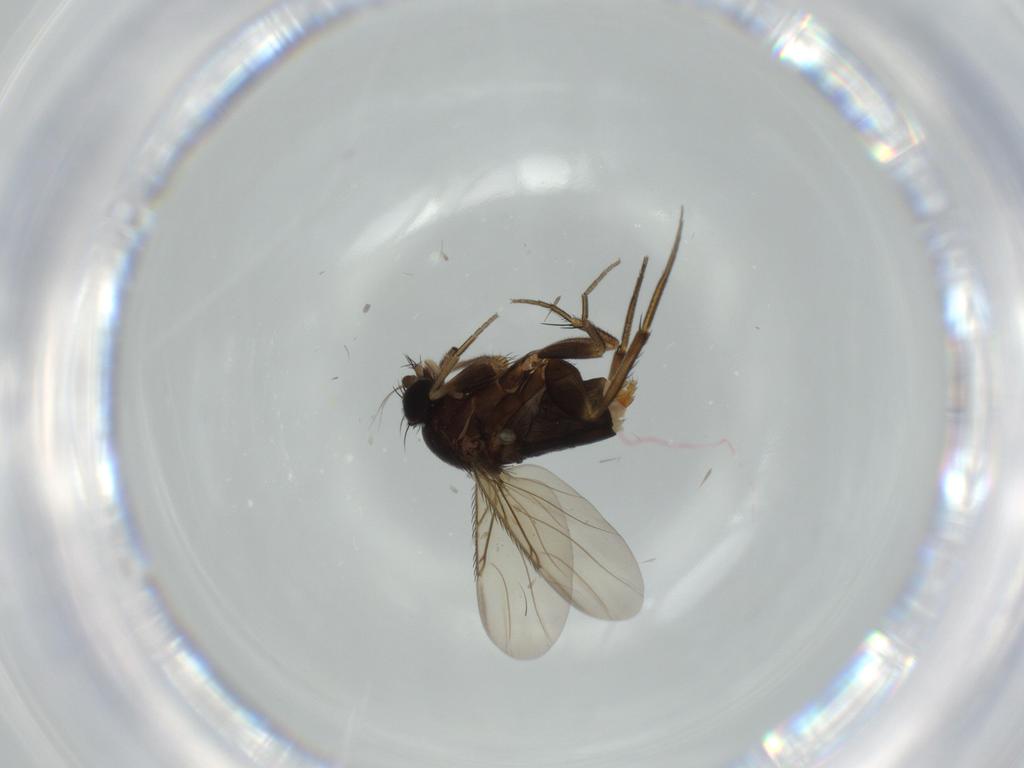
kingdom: Animalia
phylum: Arthropoda
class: Insecta
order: Diptera
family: Phoridae
